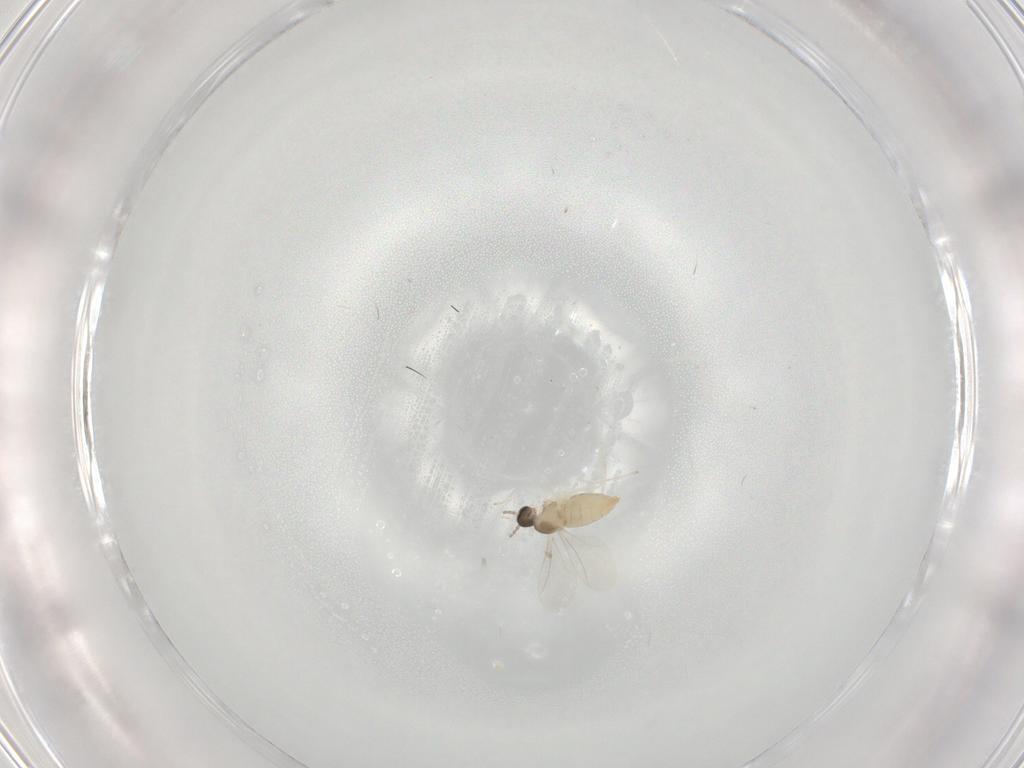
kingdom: Animalia
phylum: Arthropoda
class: Insecta
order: Diptera
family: Cecidomyiidae
